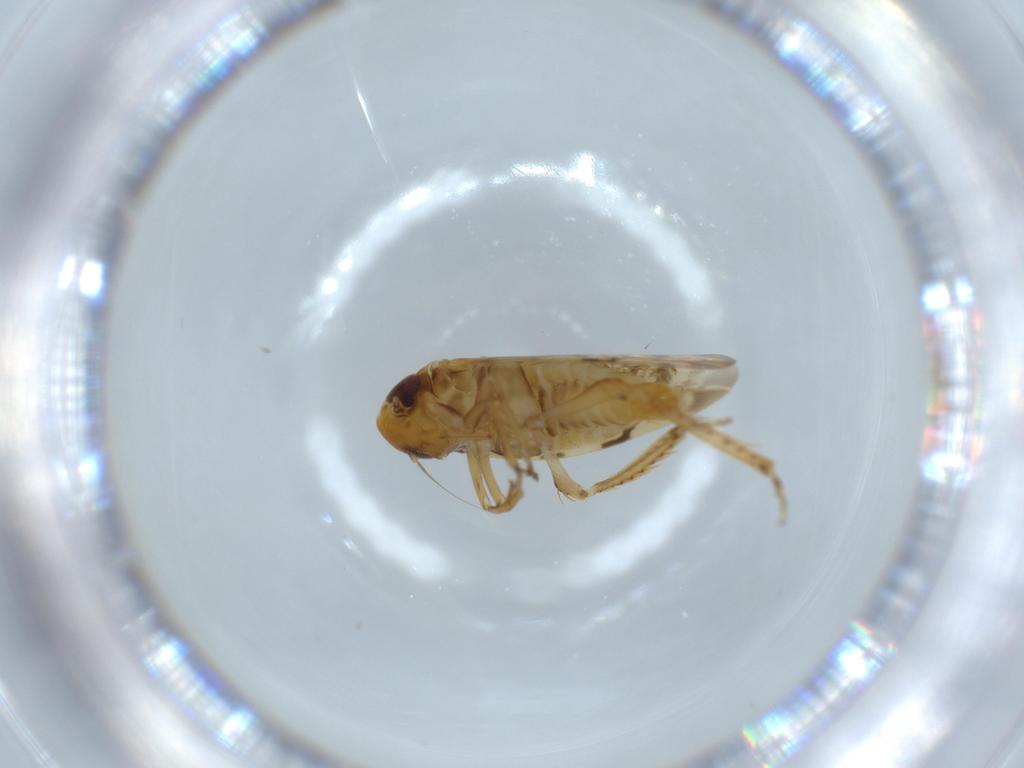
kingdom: Animalia
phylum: Arthropoda
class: Insecta
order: Hemiptera
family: Cicadellidae
